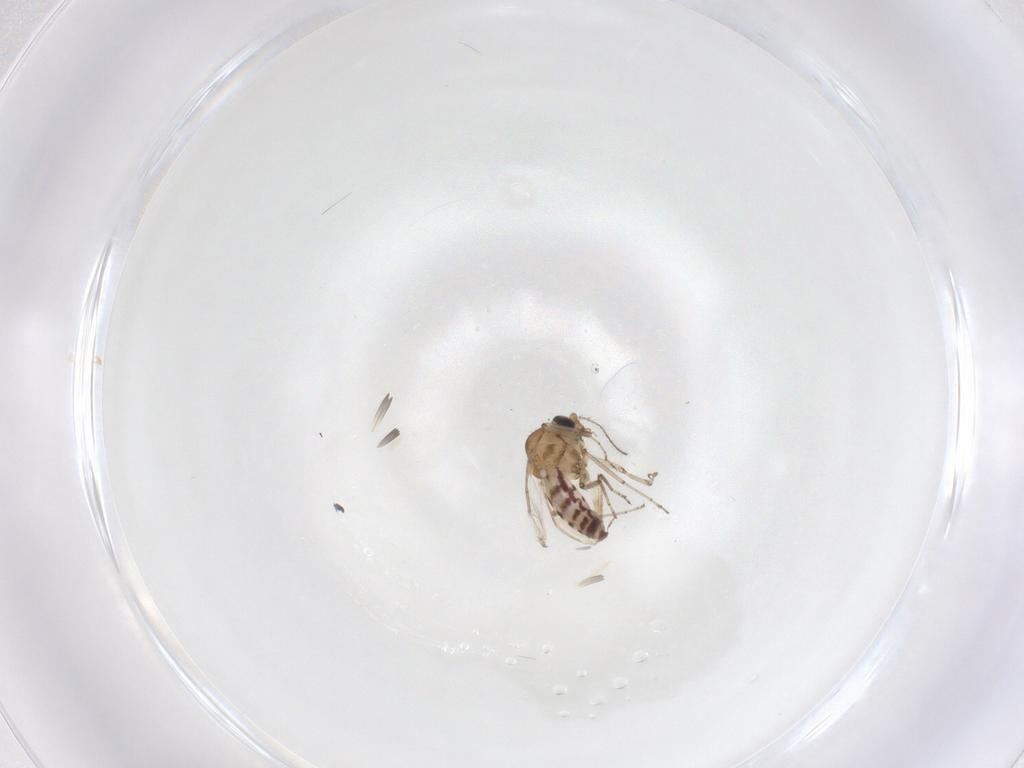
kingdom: Animalia
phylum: Arthropoda
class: Insecta
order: Diptera
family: Ceratopogonidae
